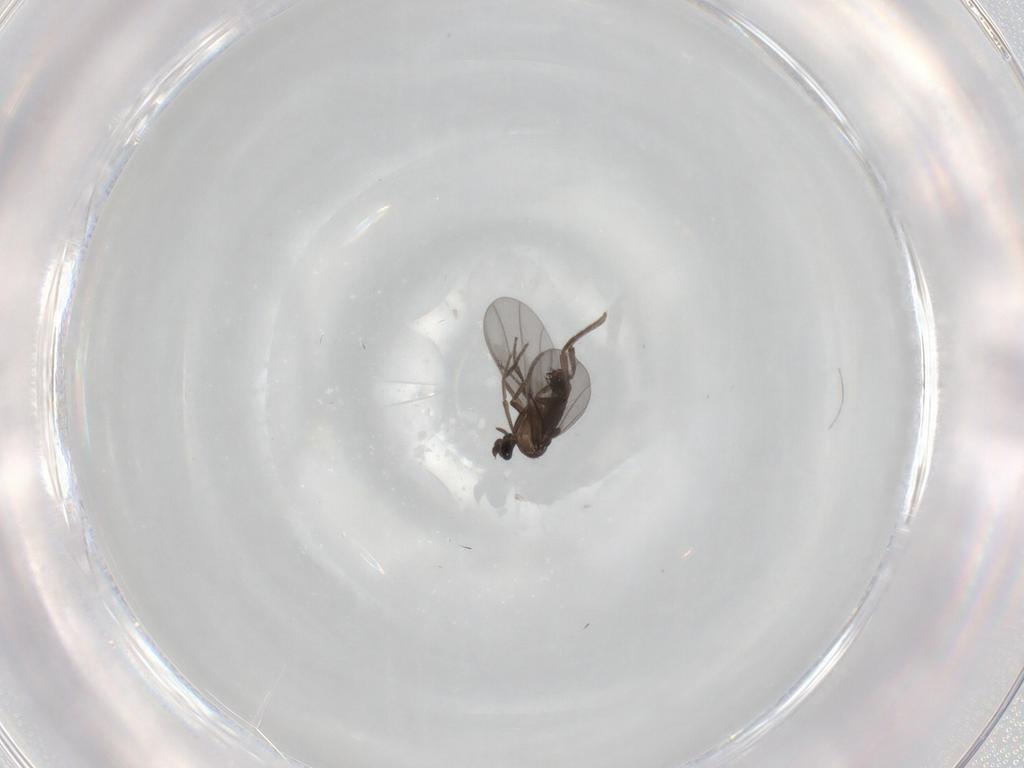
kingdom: Animalia
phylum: Arthropoda
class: Insecta
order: Diptera
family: Phoridae
